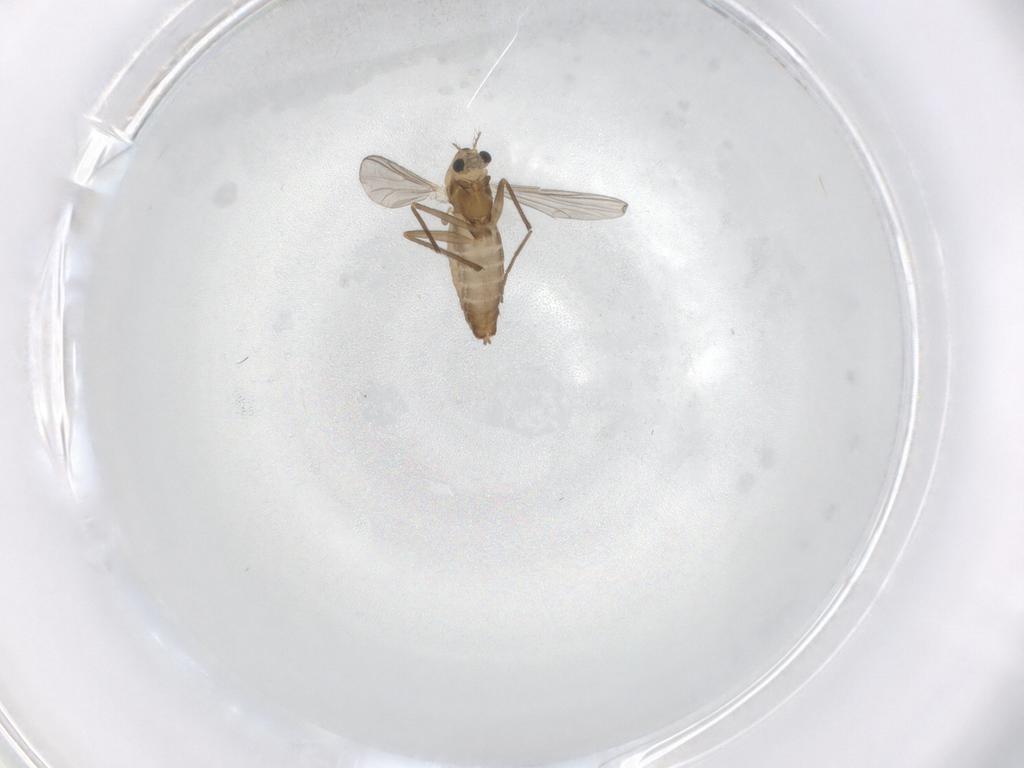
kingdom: Animalia
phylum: Arthropoda
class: Insecta
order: Diptera
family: Chironomidae
